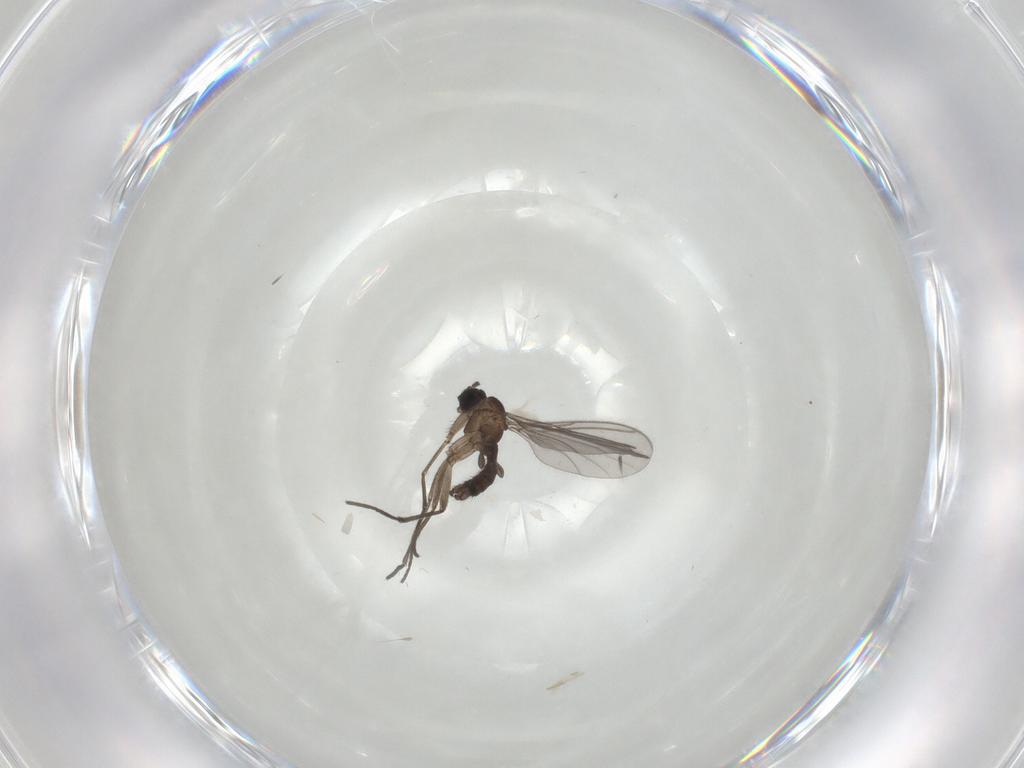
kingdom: Animalia
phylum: Arthropoda
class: Insecta
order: Diptera
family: Sciaridae
